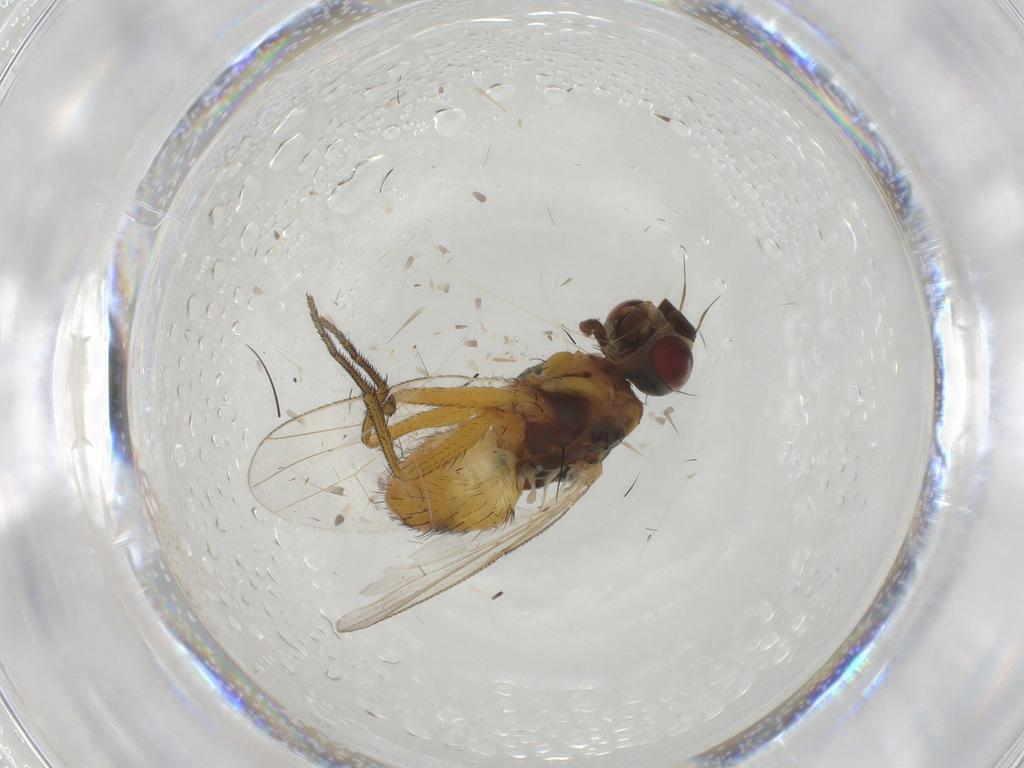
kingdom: Animalia
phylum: Arthropoda
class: Insecta
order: Diptera
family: Muscidae
